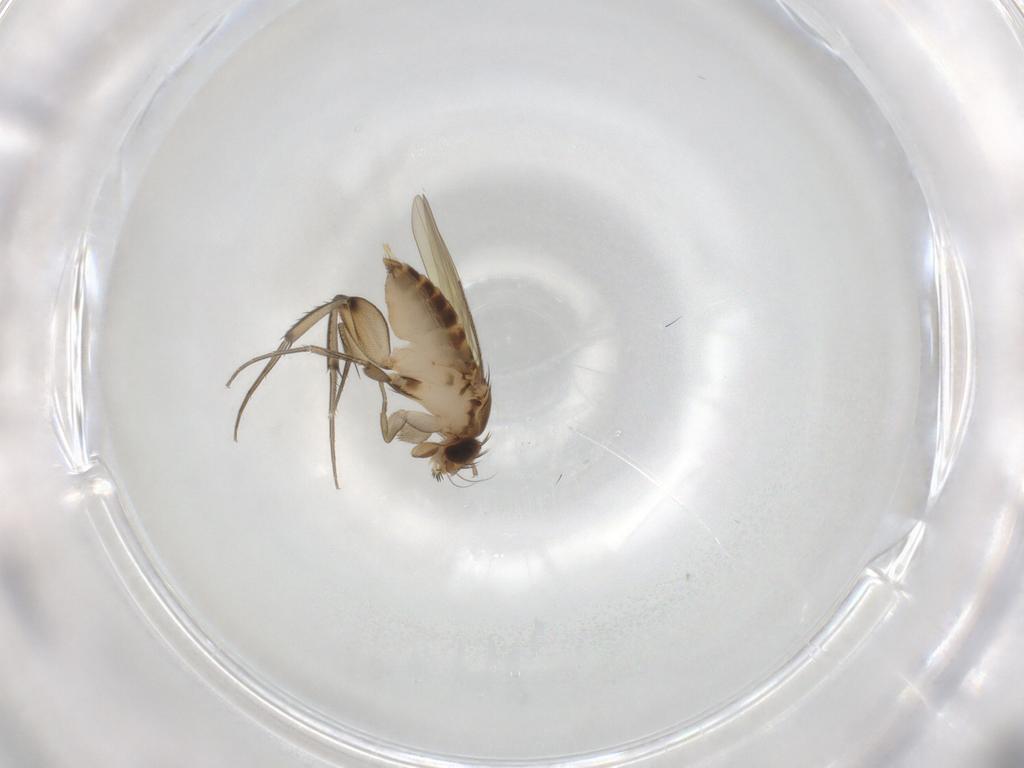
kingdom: Animalia
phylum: Arthropoda
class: Insecta
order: Diptera
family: Phoridae
